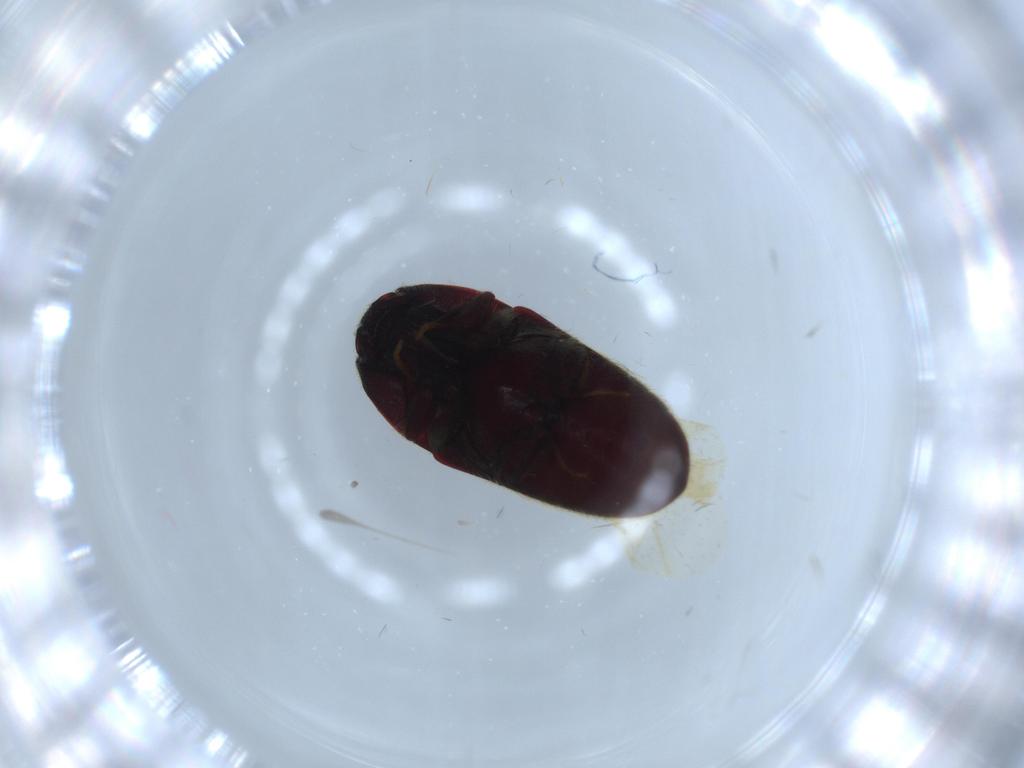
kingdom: Animalia
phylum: Arthropoda
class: Insecta
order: Coleoptera
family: Throscidae
